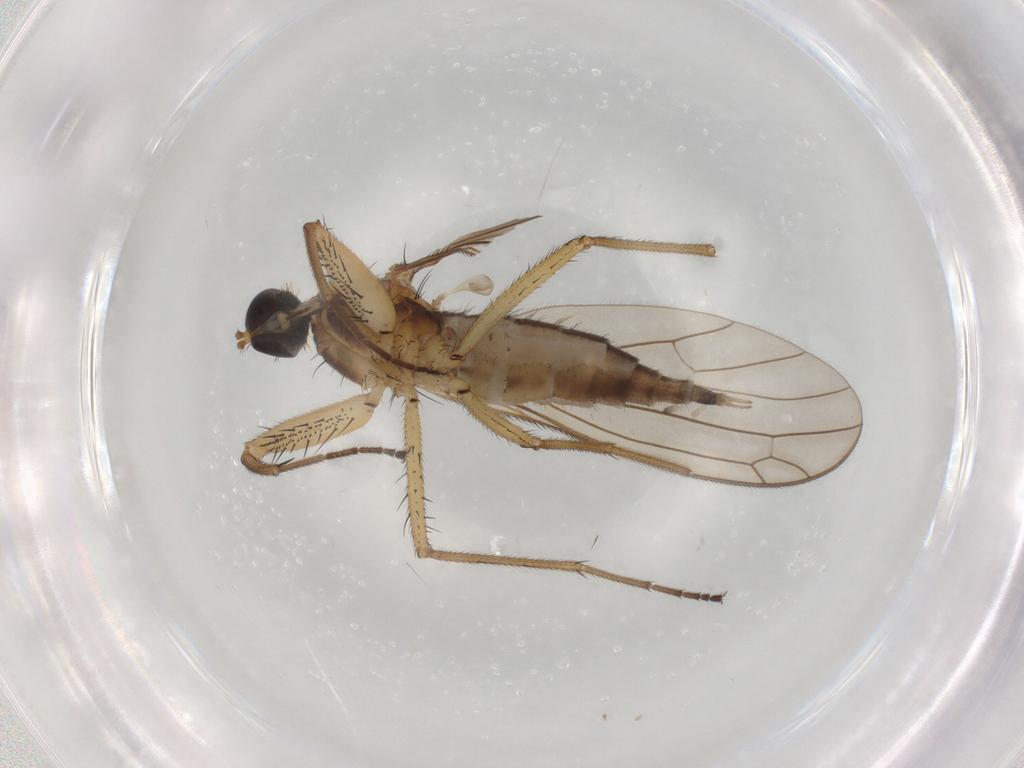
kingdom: Animalia
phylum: Arthropoda
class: Insecta
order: Diptera
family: Empididae
